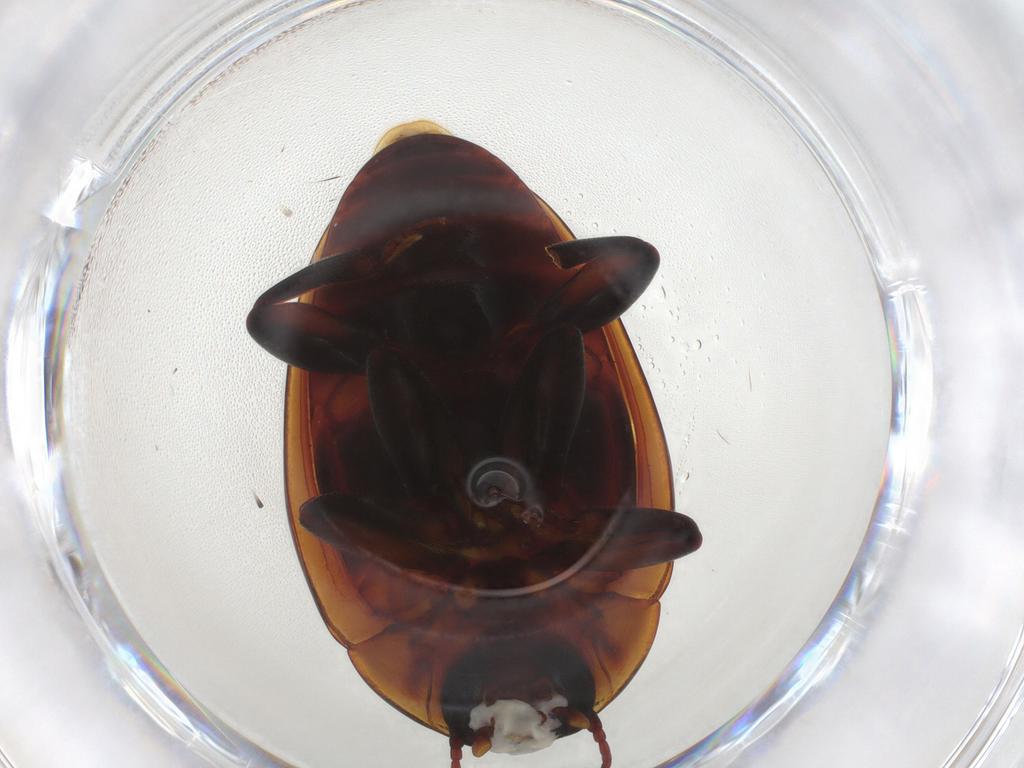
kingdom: Animalia
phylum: Arthropoda
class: Insecta
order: Coleoptera
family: Zopheridae
